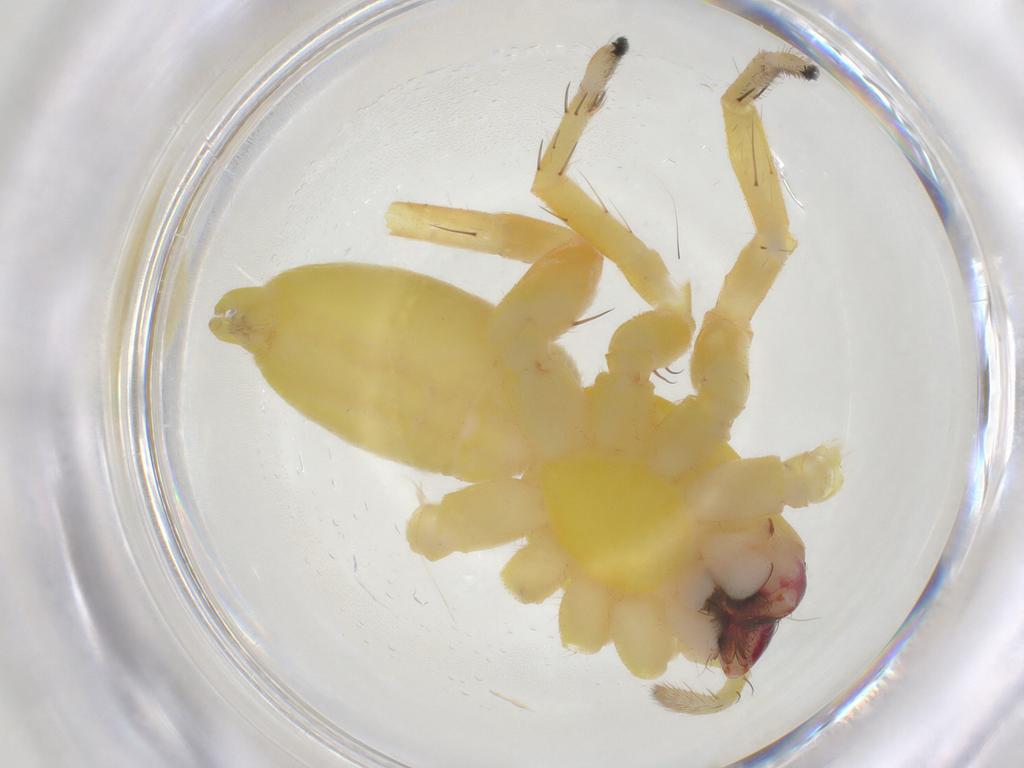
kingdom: Animalia
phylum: Arthropoda
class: Arachnida
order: Araneae
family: Anyphaenidae
